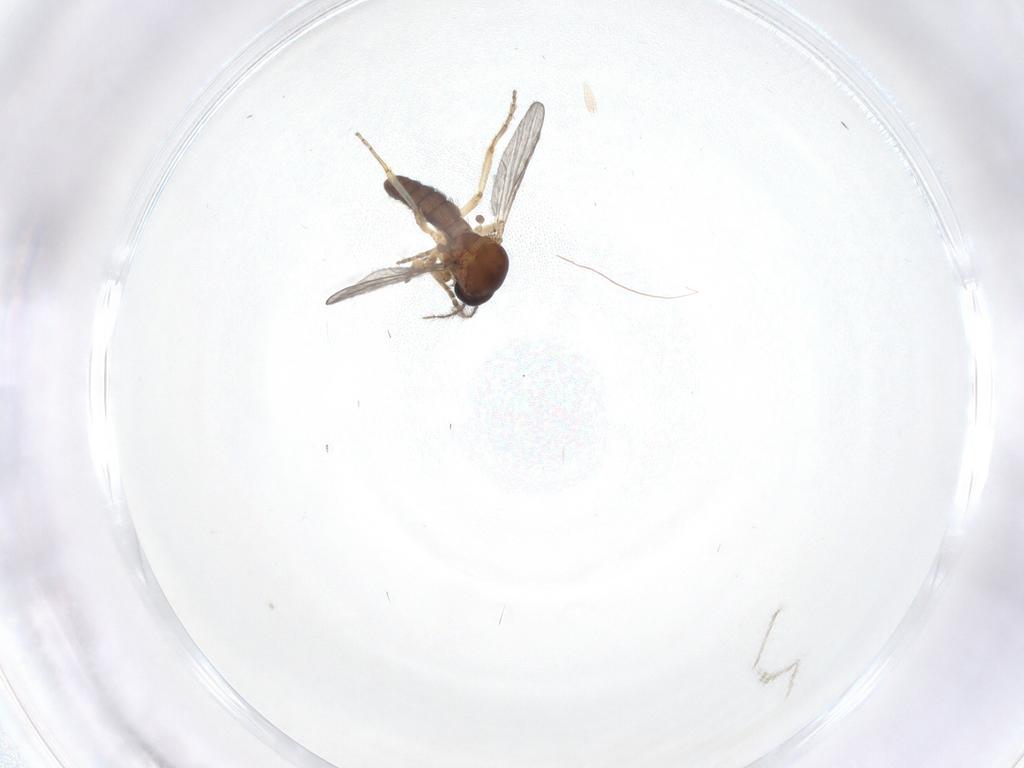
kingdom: Animalia
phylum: Arthropoda
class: Insecta
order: Diptera
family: Ceratopogonidae
